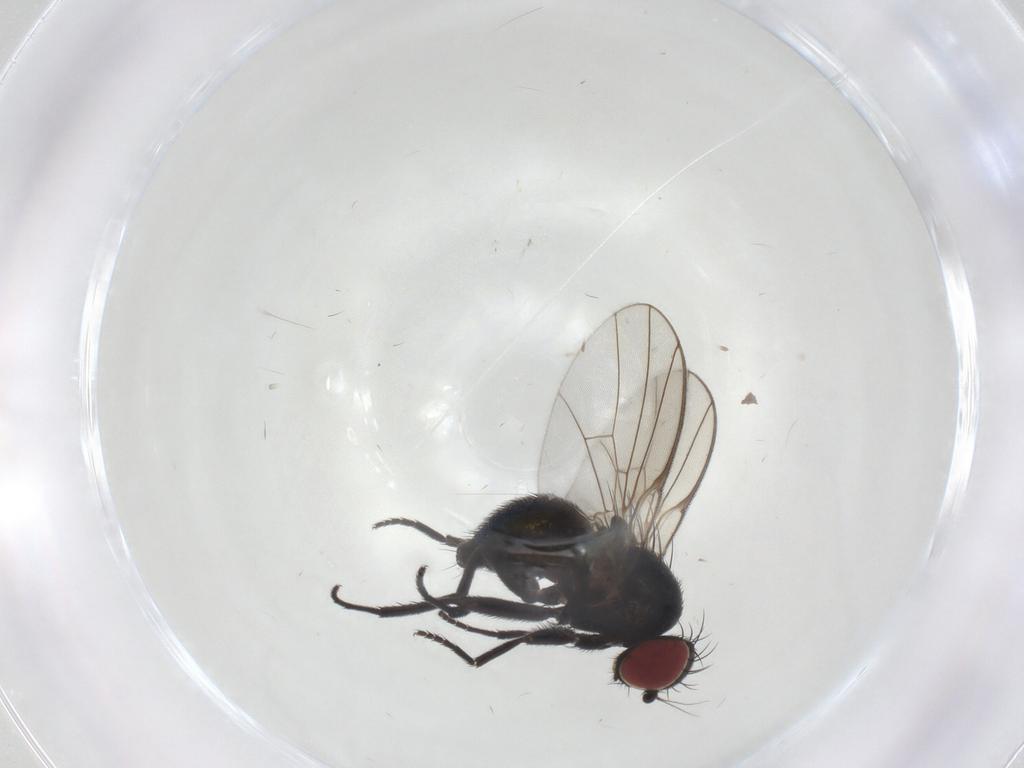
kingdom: Animalia
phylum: Arthropoda
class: Insecta
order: Diptera
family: Agromyzidae
